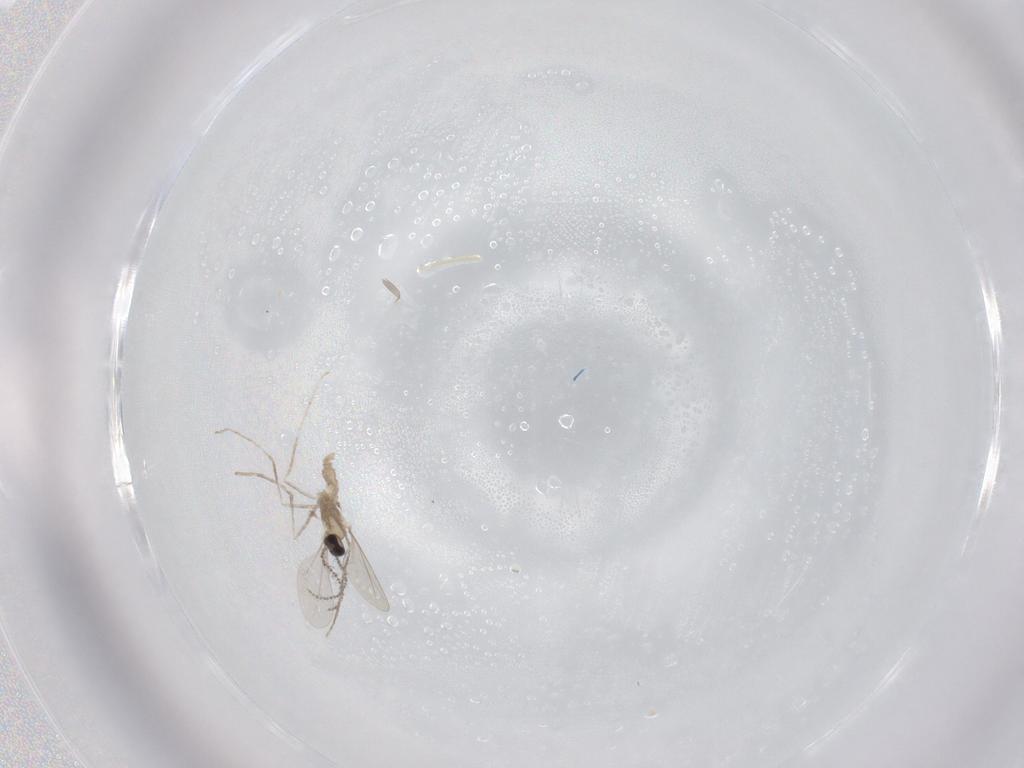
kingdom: Animalia
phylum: Arthropoda
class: Insecta
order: Diptera
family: Cecidomyiidae
